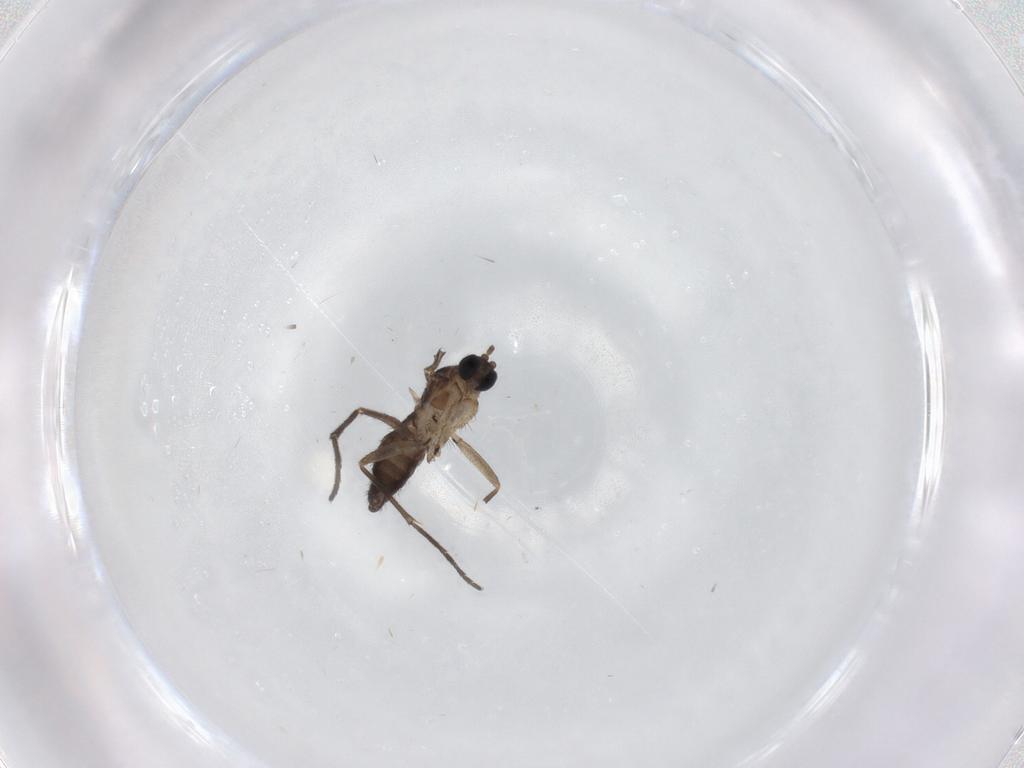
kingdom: Animalia
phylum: Arthropoda
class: Insecta
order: Diptera
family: Sciaridae
